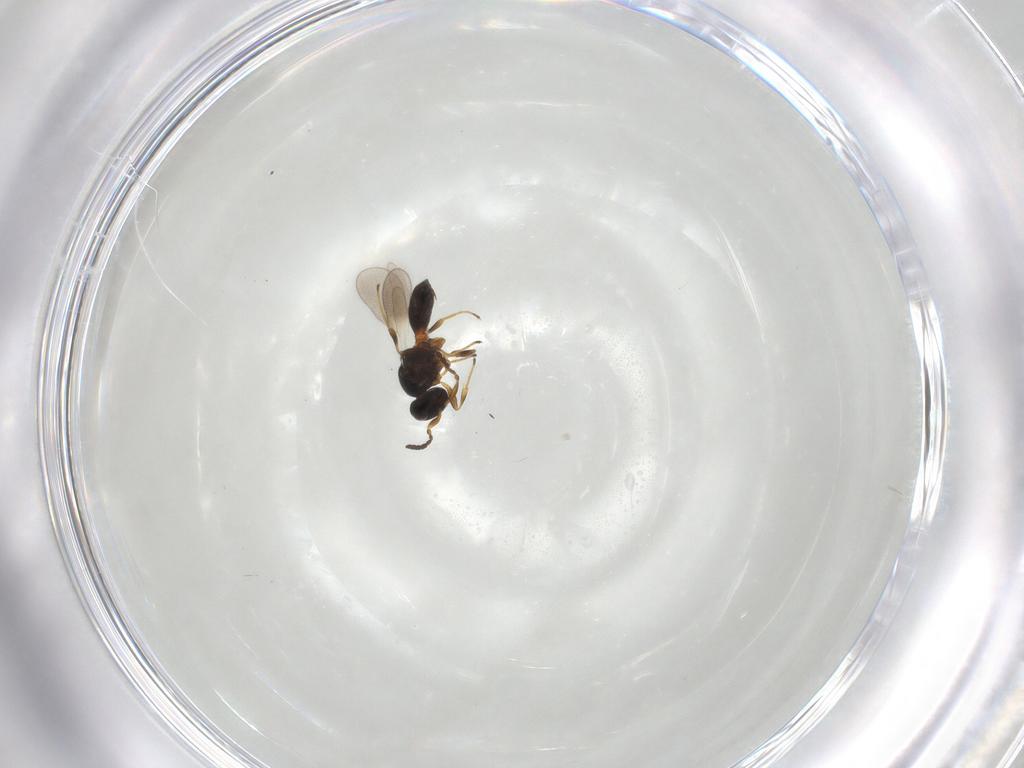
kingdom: Animalia
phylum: Arthropoda
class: Insecta
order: Hymenoptera
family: Platygastridae
